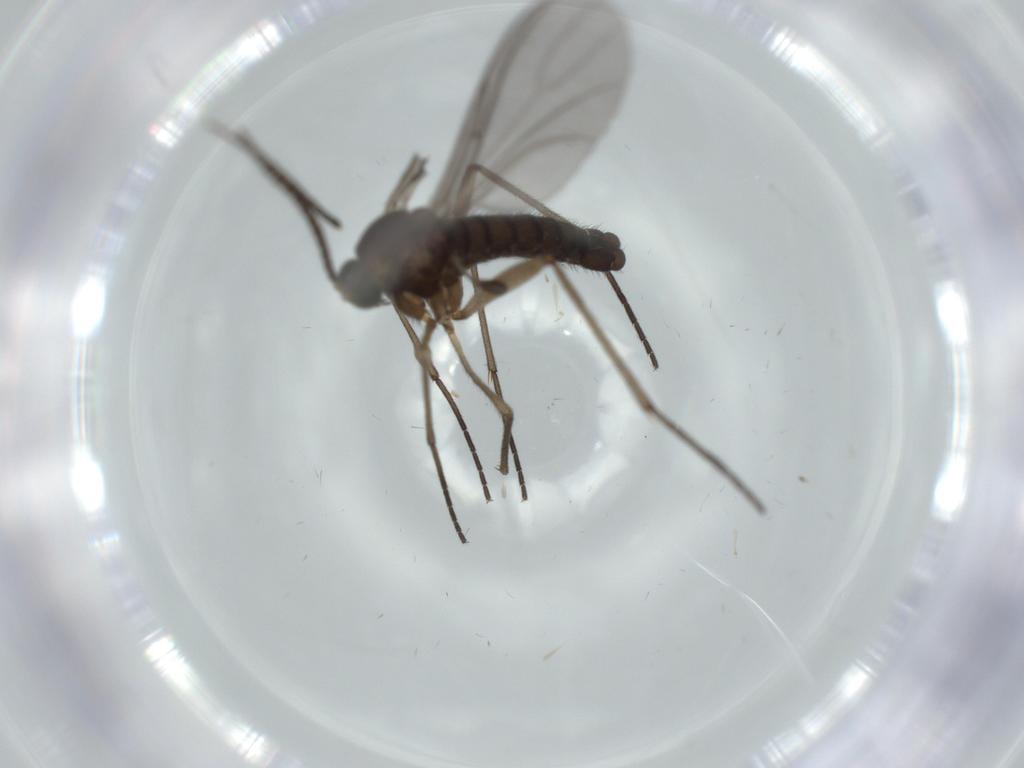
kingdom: Animalia
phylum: Arthropoda
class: Insecta
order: Diptera
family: Sciaridae
